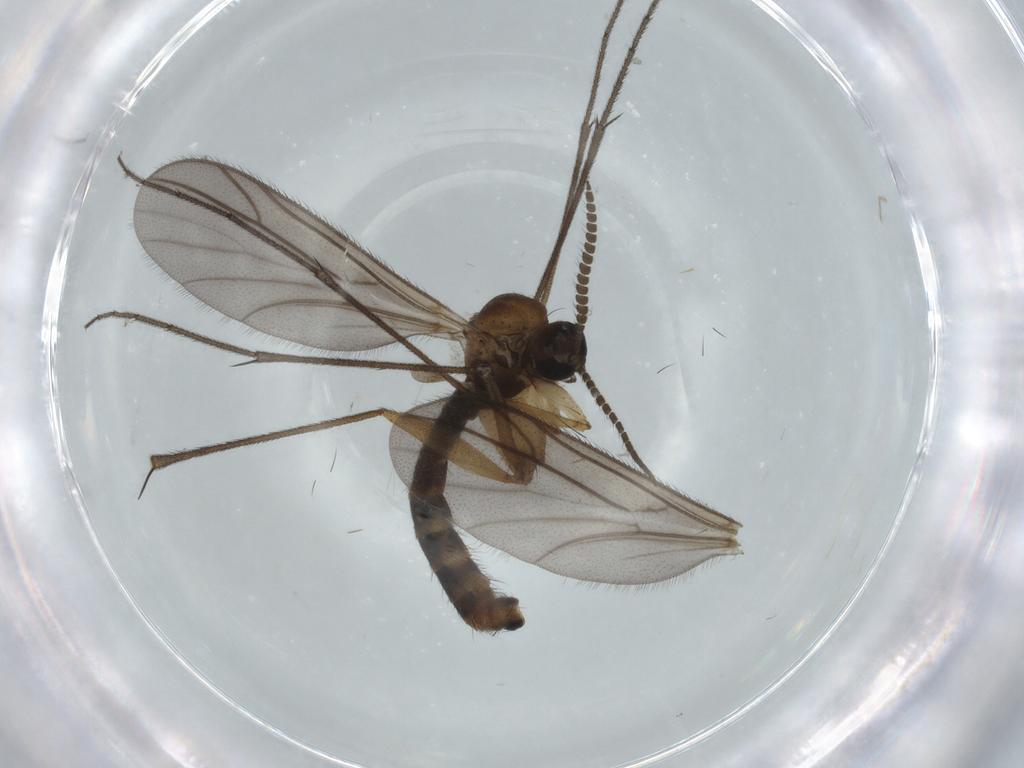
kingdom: Animalia
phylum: Arthropoda
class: Insecta
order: Diptera
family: Ditomyiidae
